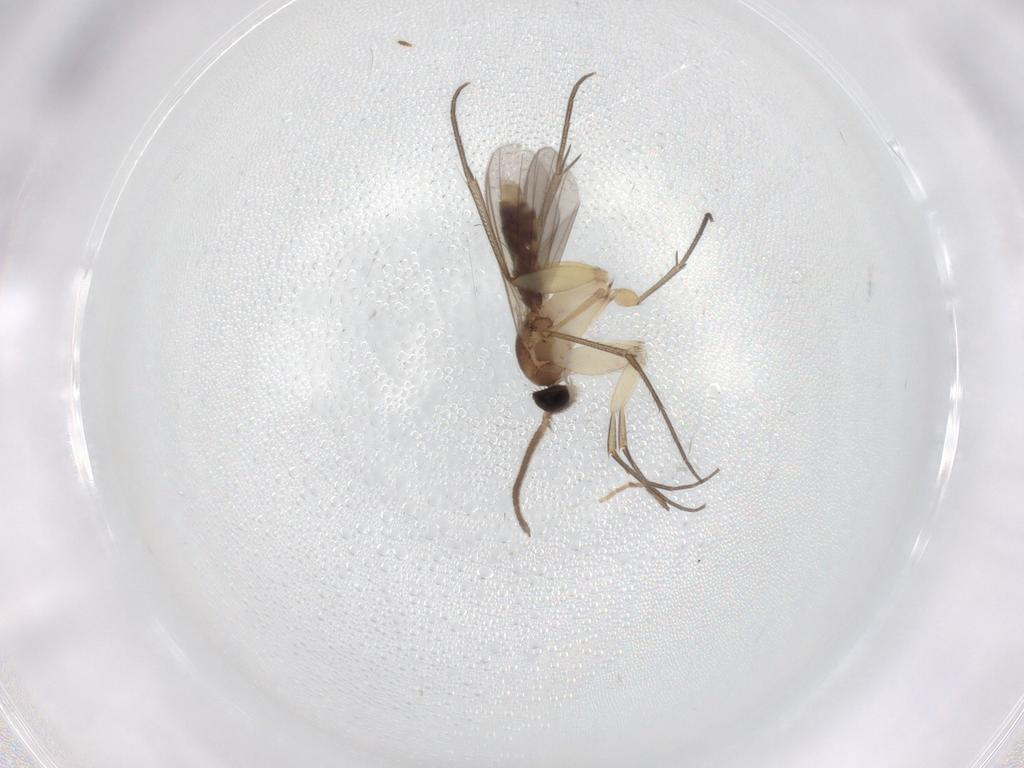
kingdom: Animalia
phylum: Arthropoda
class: Insecta
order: Diptera
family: Mycetophilidae
